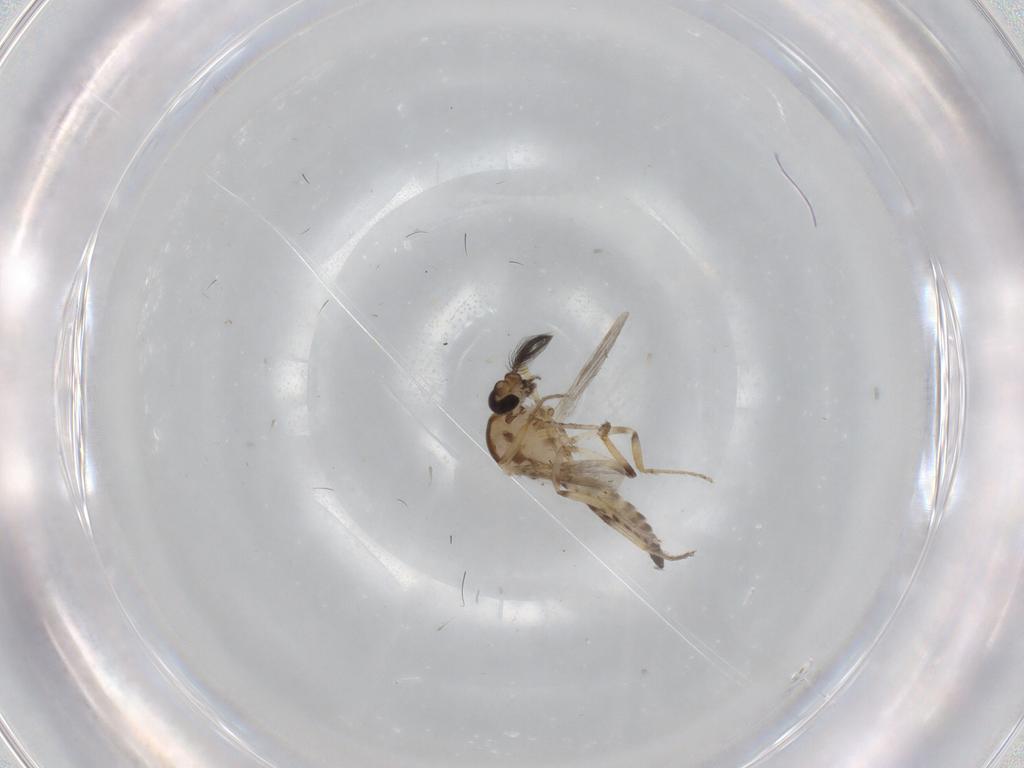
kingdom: Animalia
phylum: Arthropoda
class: Insecta
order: Diptera
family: Ceratopogonidae
